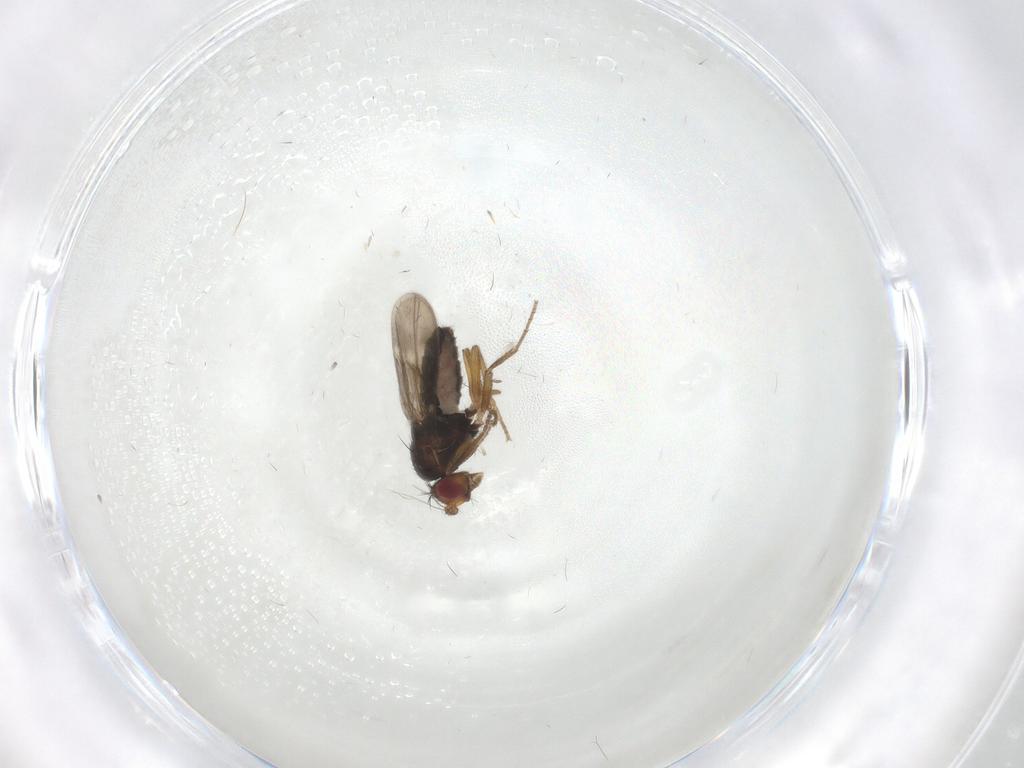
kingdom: Animalia
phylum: Arthropoda
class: Insecta
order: Diptera
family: Sphaeroceridae
